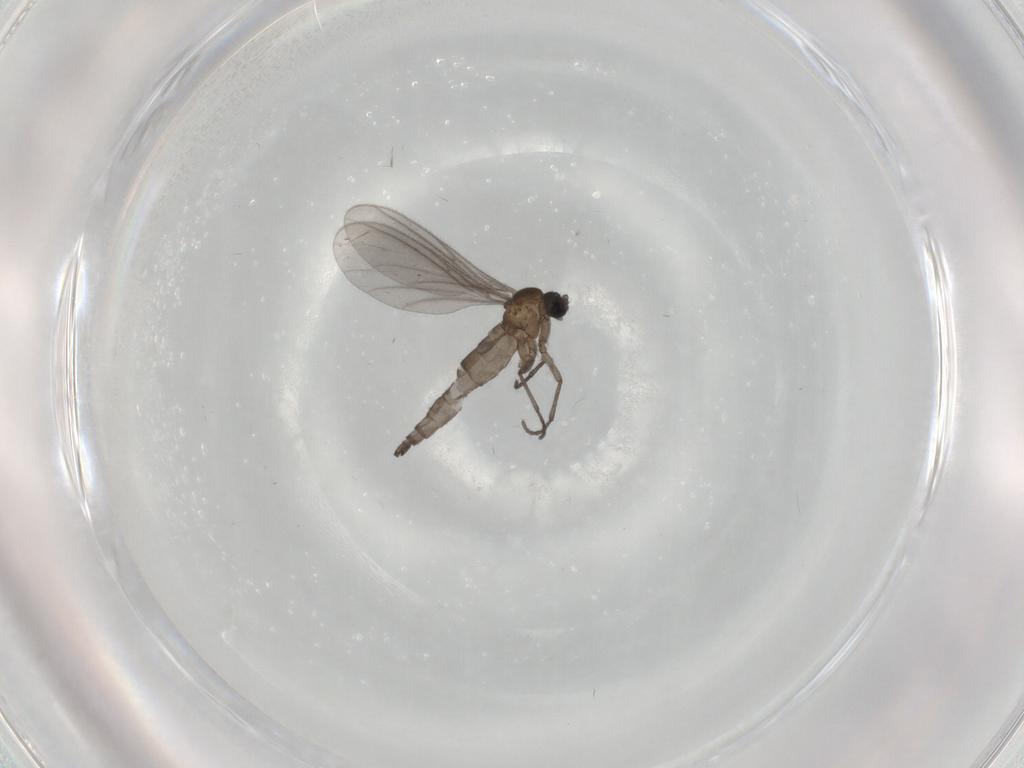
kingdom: Animalia
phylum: Arthropoda
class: Insecta
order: Diptera
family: Sciaridae
